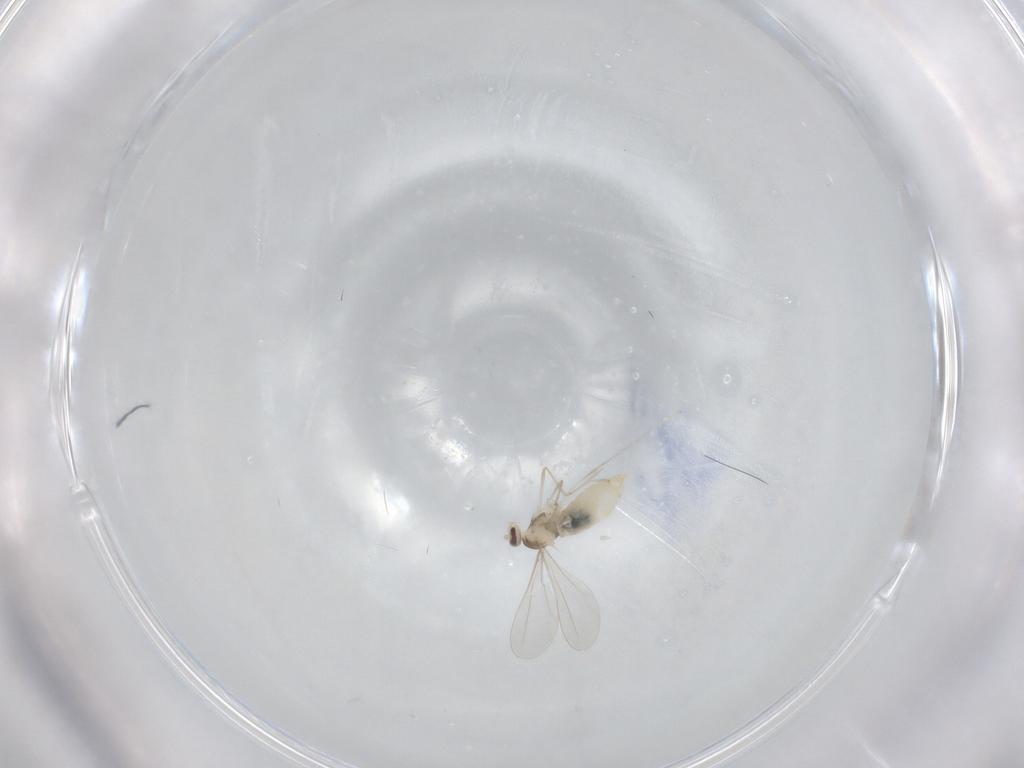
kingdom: Animalia
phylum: Arthropoda
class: Insecta
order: Diptera
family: Cecidomyiidae
